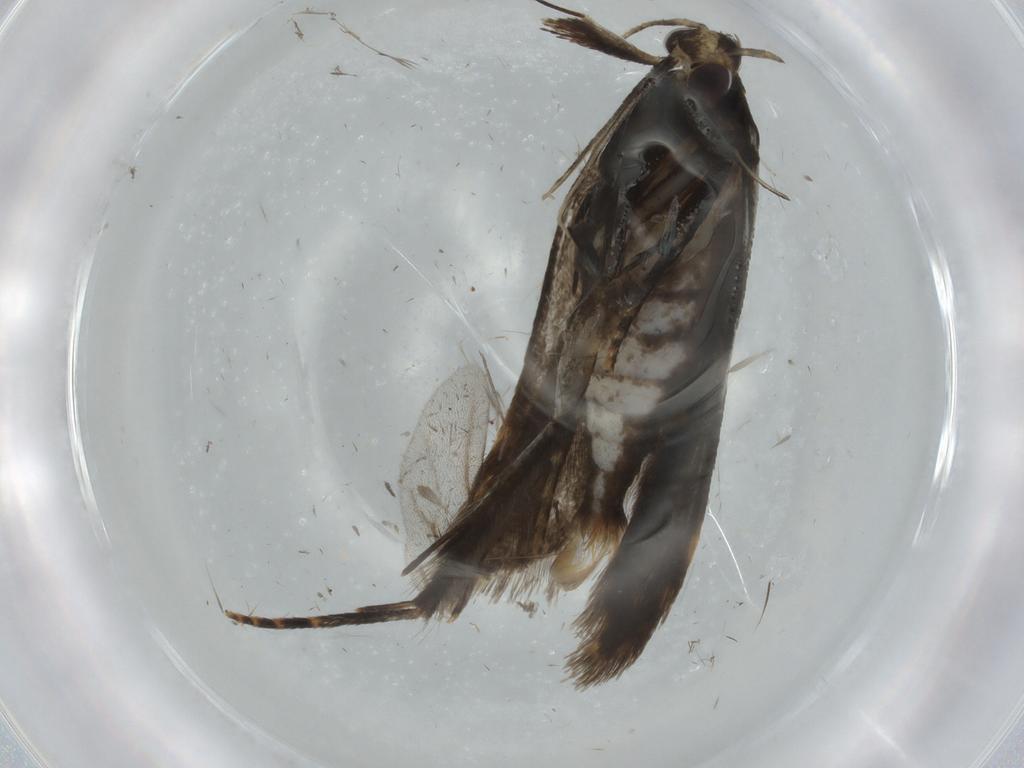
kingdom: Animalia
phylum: Arthropoda
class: Insecta
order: Lepidoptera
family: Gelechiidae
